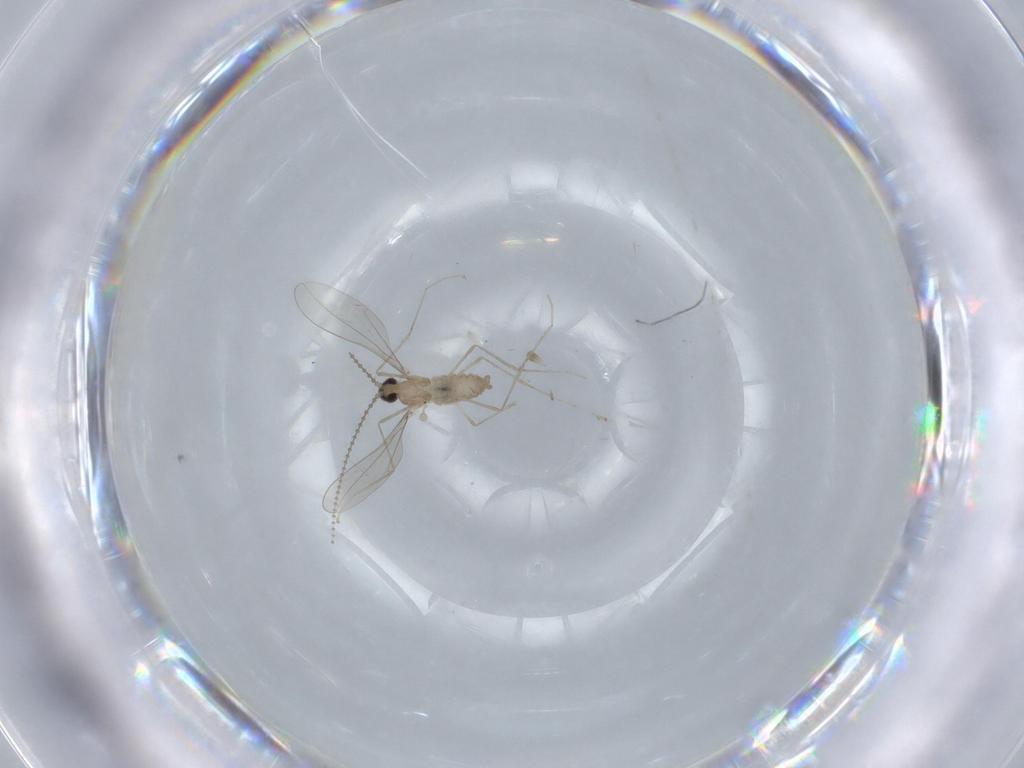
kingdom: Animalia
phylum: Arthropoda
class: Insecta
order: Diptera
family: Cecidomyiidae
